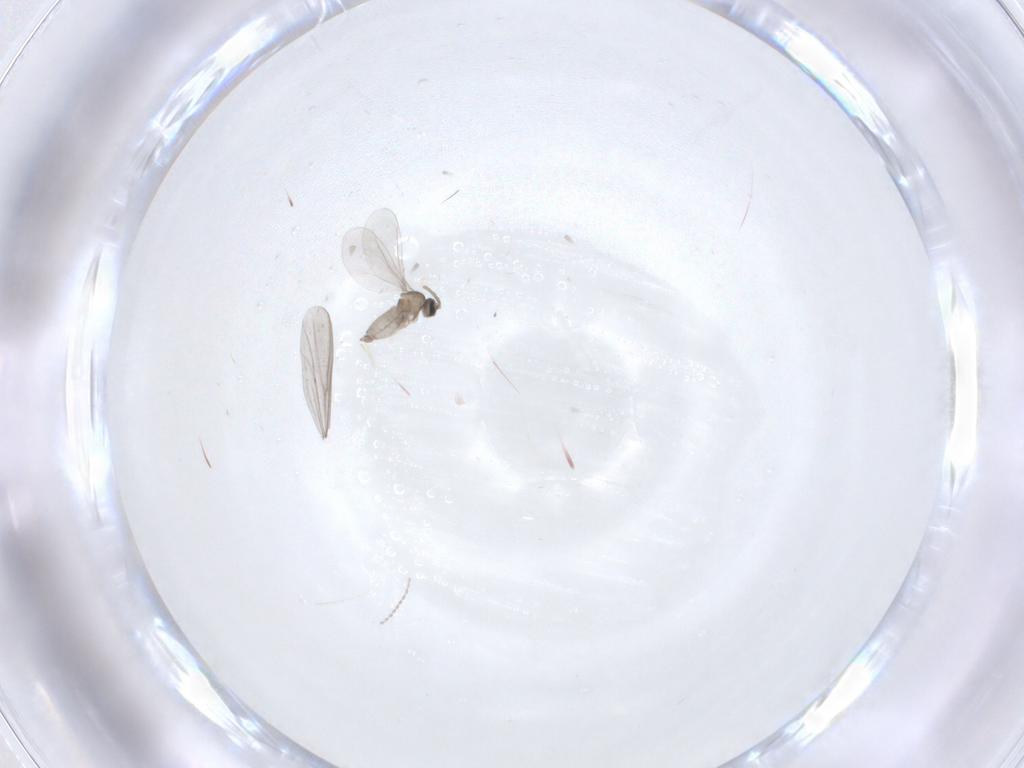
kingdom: Animalia
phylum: Arthropoda
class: Insecta
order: Diptera
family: Cecidomyiidae
